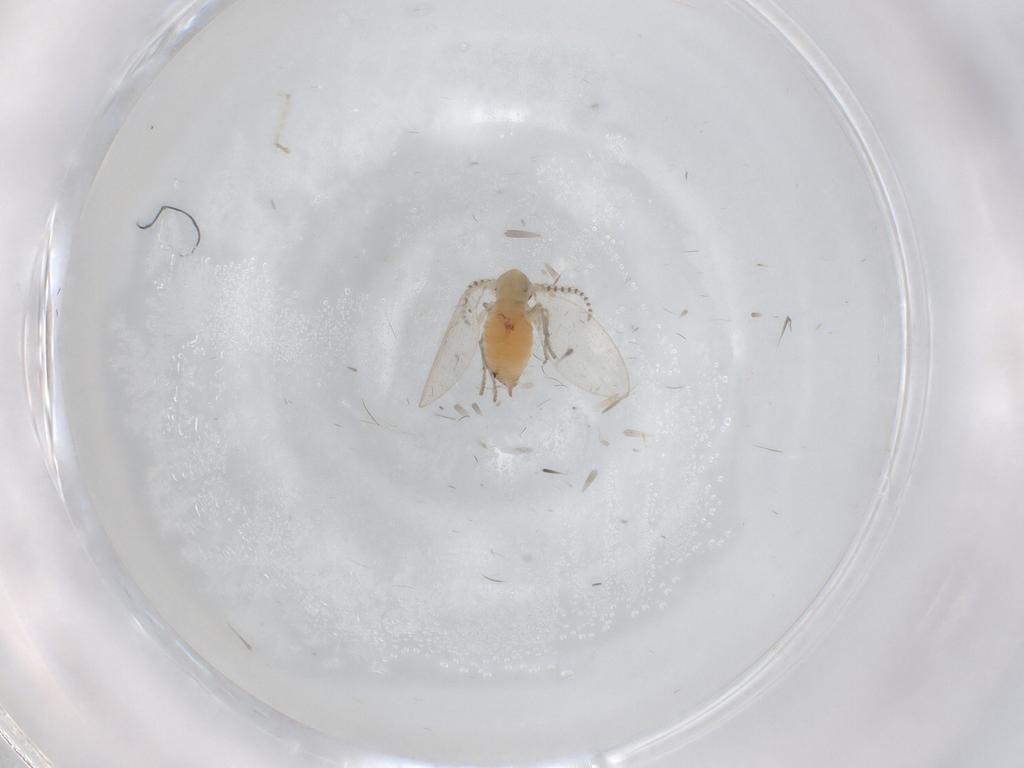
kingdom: Animalia
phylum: Arthropoda
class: Insecta
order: Diptera
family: Psychodidae
